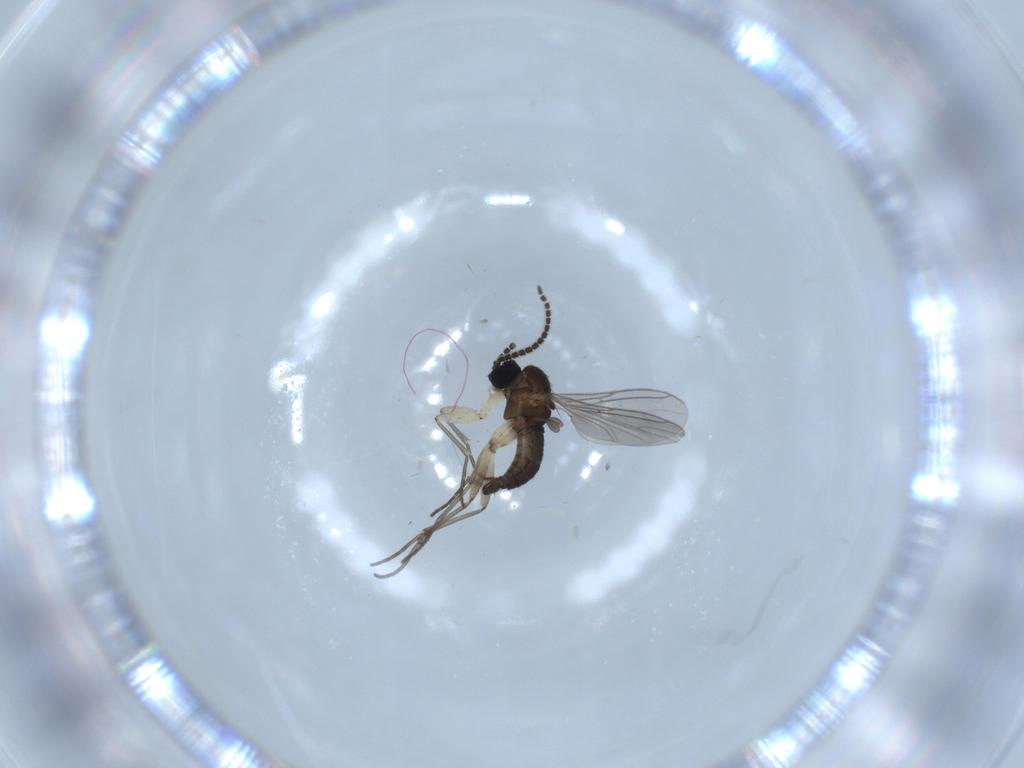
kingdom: Animalia
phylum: Arthropoda
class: Insecta
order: Diptera
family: Sciaridae
